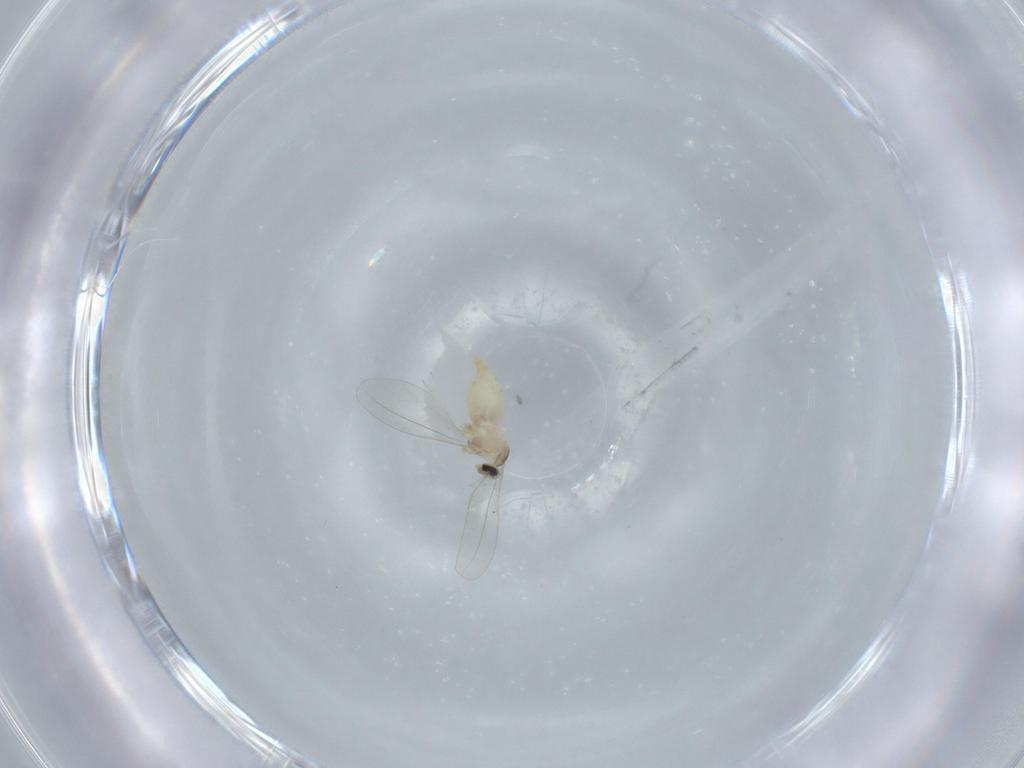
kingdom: Animalia
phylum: Arthropoda
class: Insecta
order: Diptera
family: Cecidomyiidae
